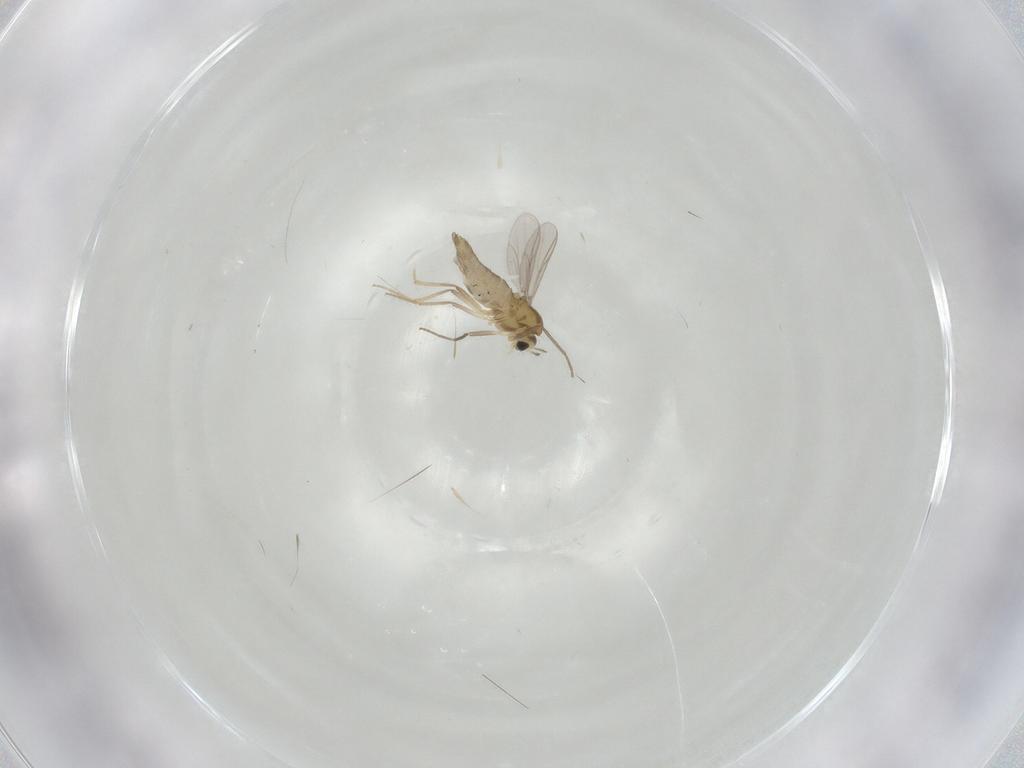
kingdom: Animalia
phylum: Arthropoda
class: Insecta
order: Diptera
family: Chironomidae
